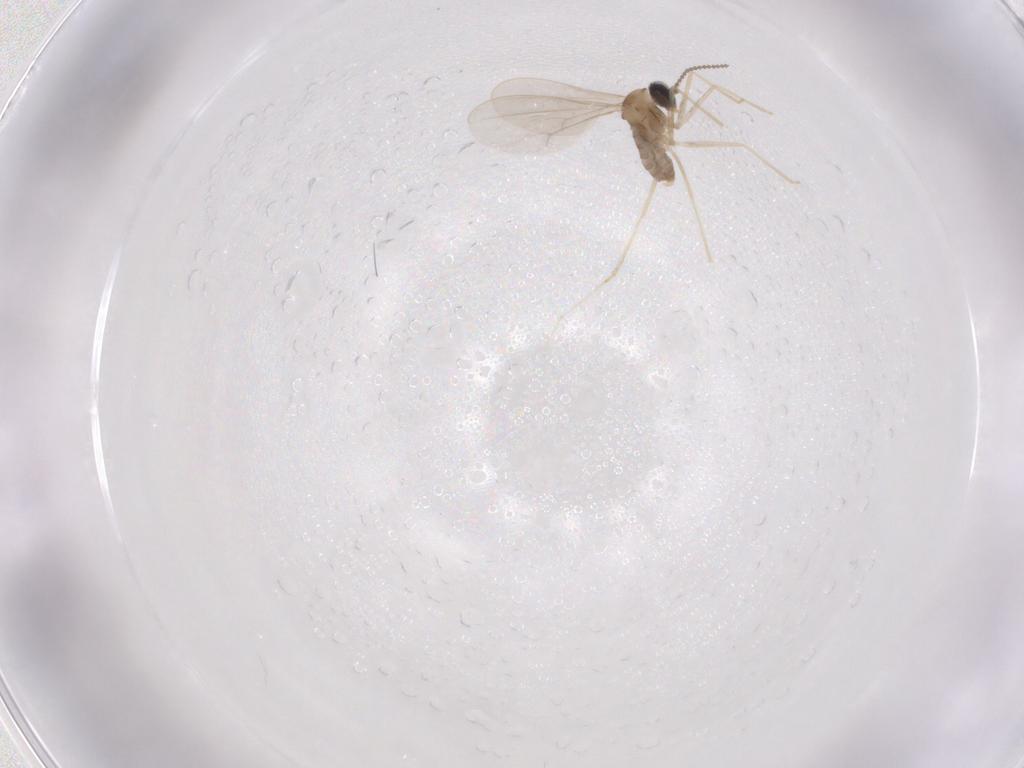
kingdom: Animalia
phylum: Arthropoda
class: Insecta
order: Diptera
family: Cecidomyiidae
